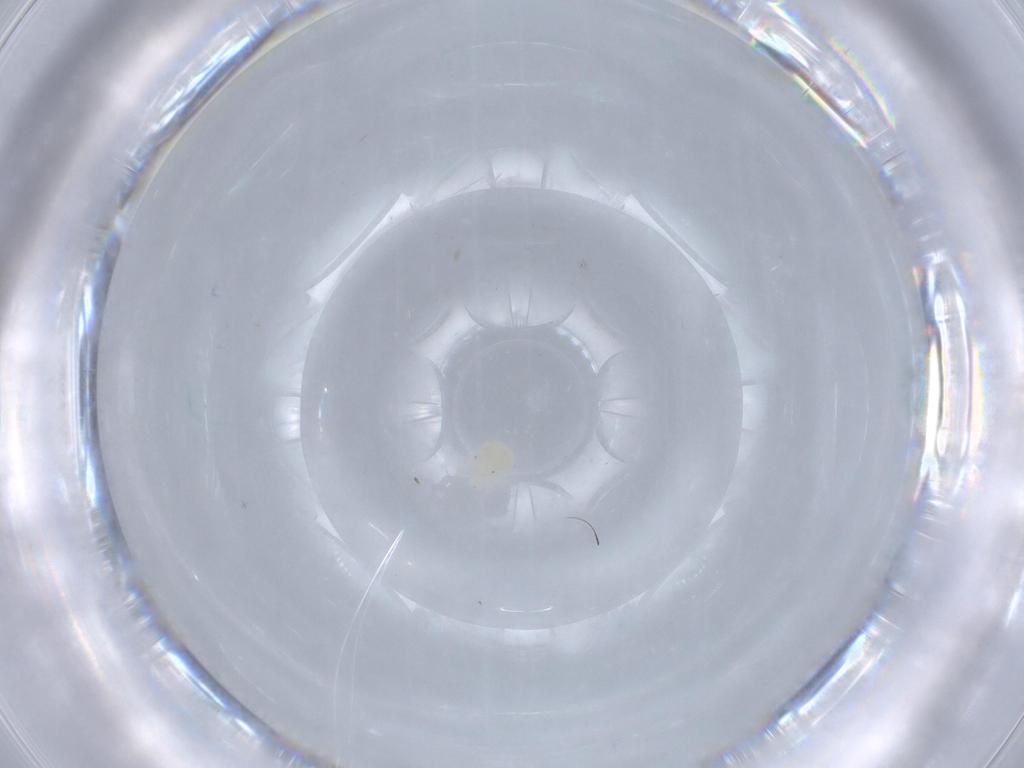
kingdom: Animalia
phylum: Arthropoda
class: Arachnida
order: Trombidiformes
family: Anystidae
